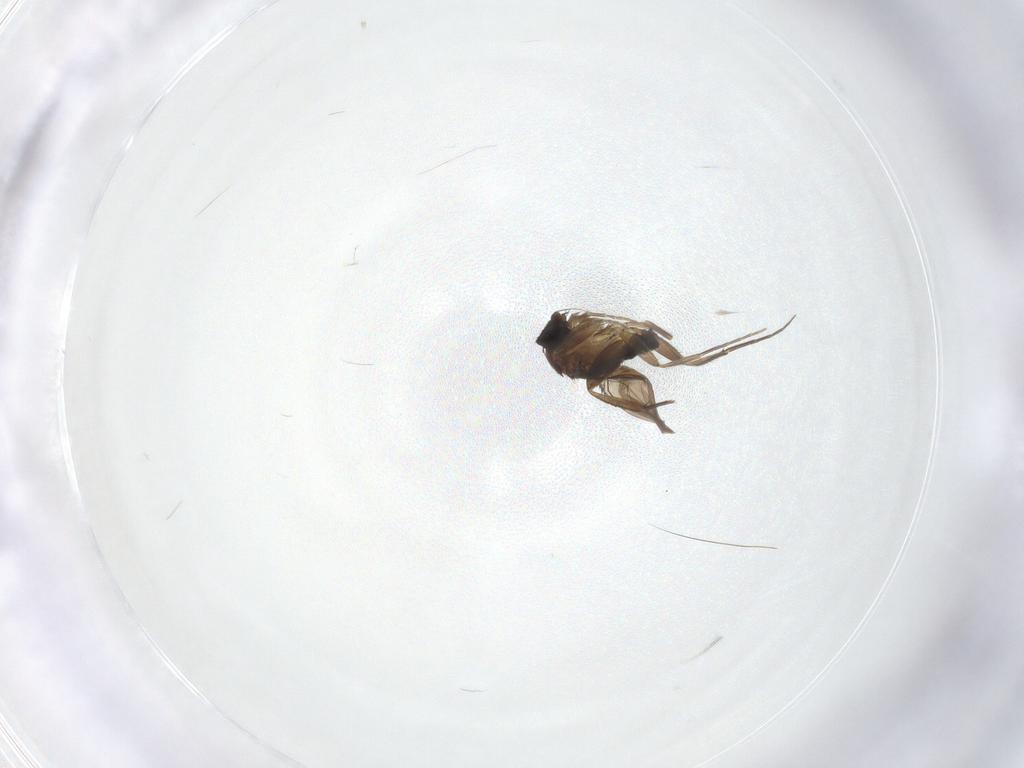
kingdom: Animalia
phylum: Arthropoda
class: Insecta
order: Diptera
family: Phoridae
